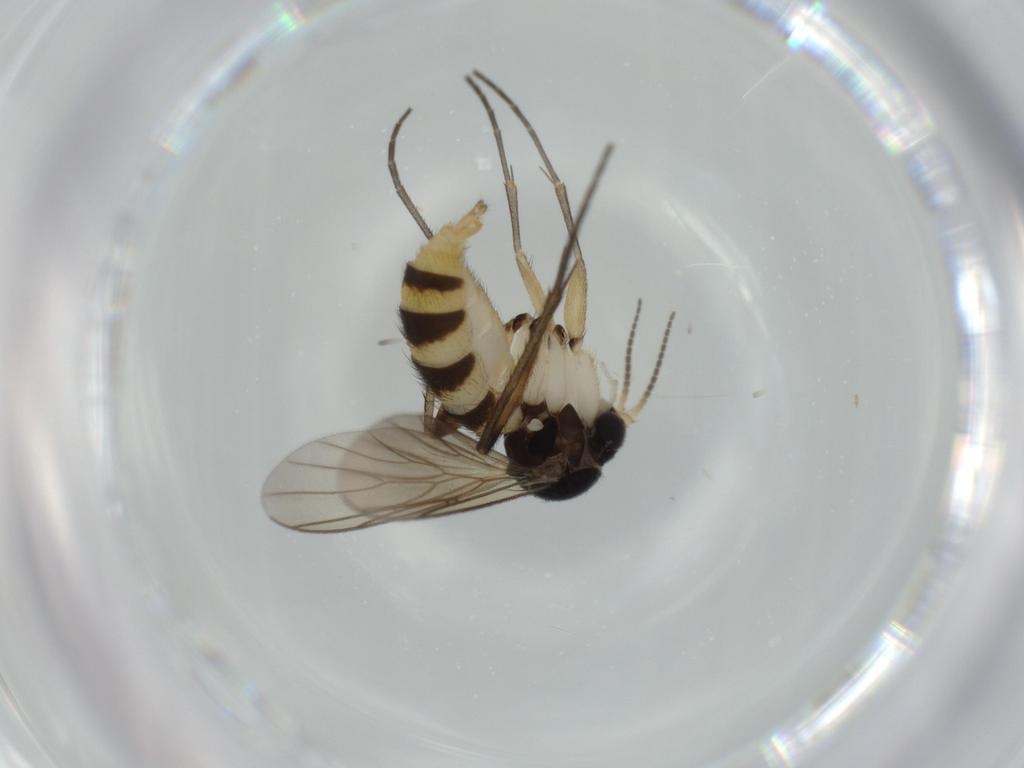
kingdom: Animalia
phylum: Arthropoda
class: Insecta
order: Diptera
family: Mycetophilidae
